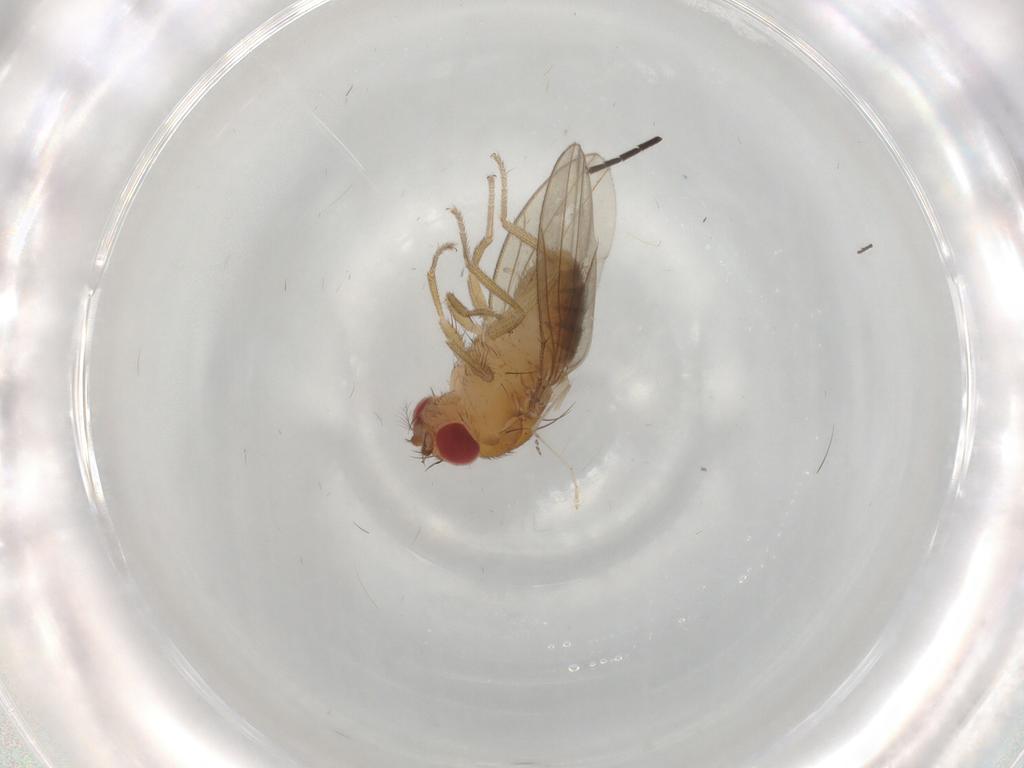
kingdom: Animalia
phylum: Arthropoda
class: Insecta
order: Diptera
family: Drosophilidae
